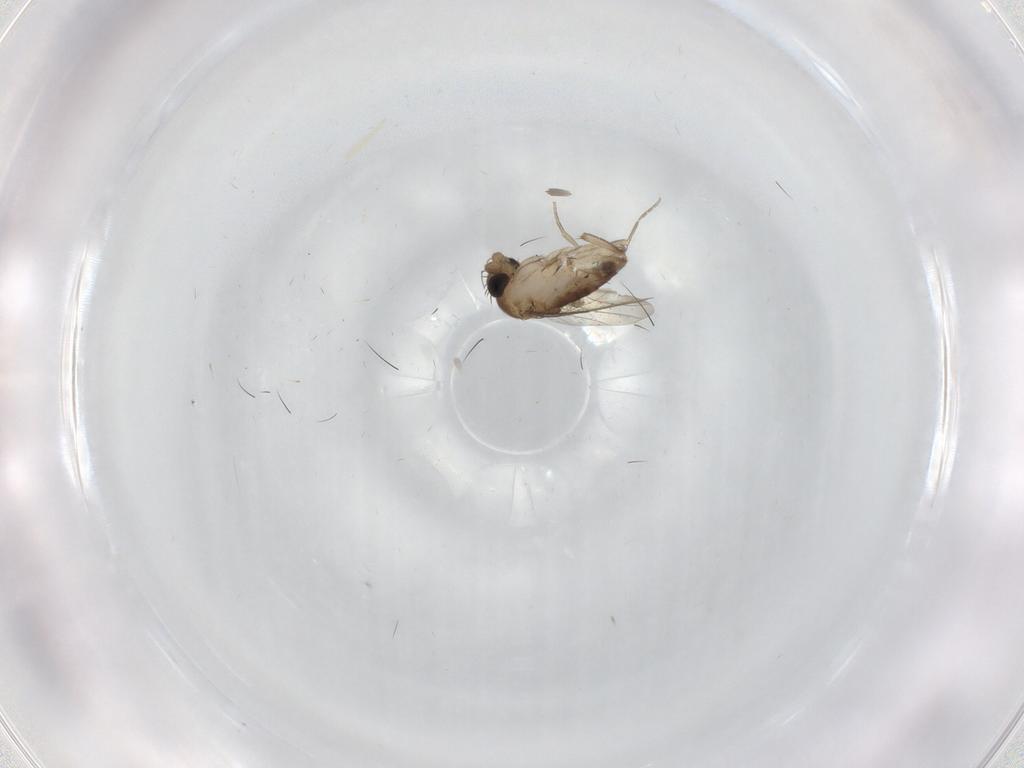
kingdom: Animalia
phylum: Arthropoda
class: Insecta
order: Diptera
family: Phoridae
